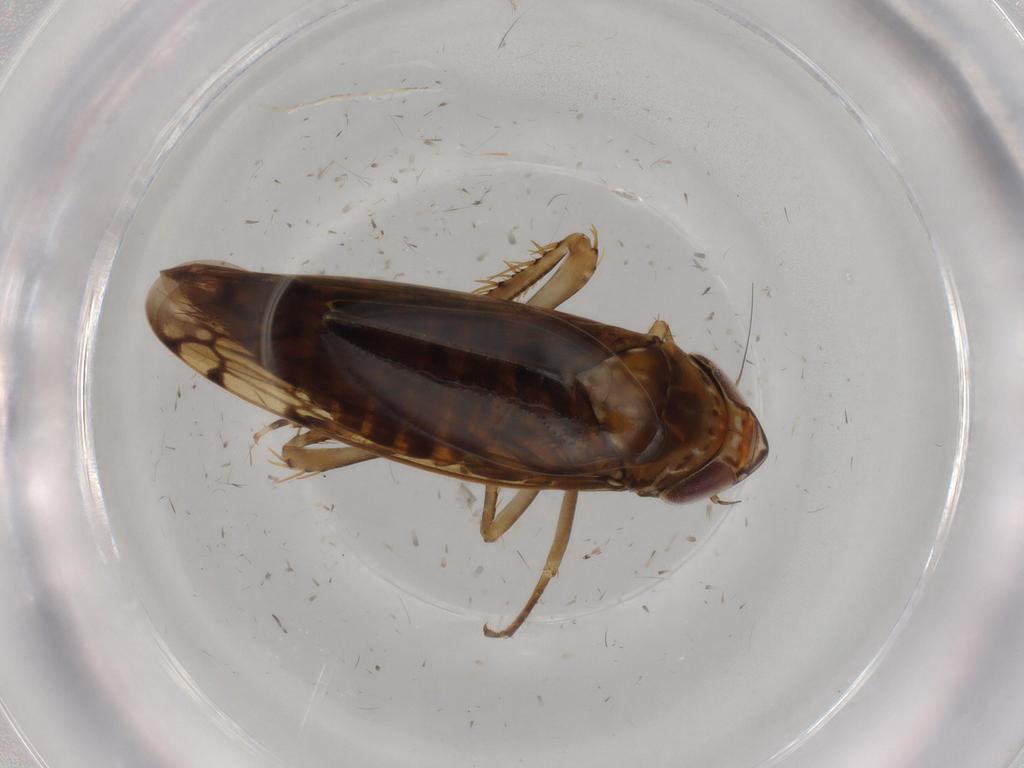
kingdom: Animalia
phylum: Arthropoda
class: Insecta
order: Hemiptera
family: Cicadellidae
